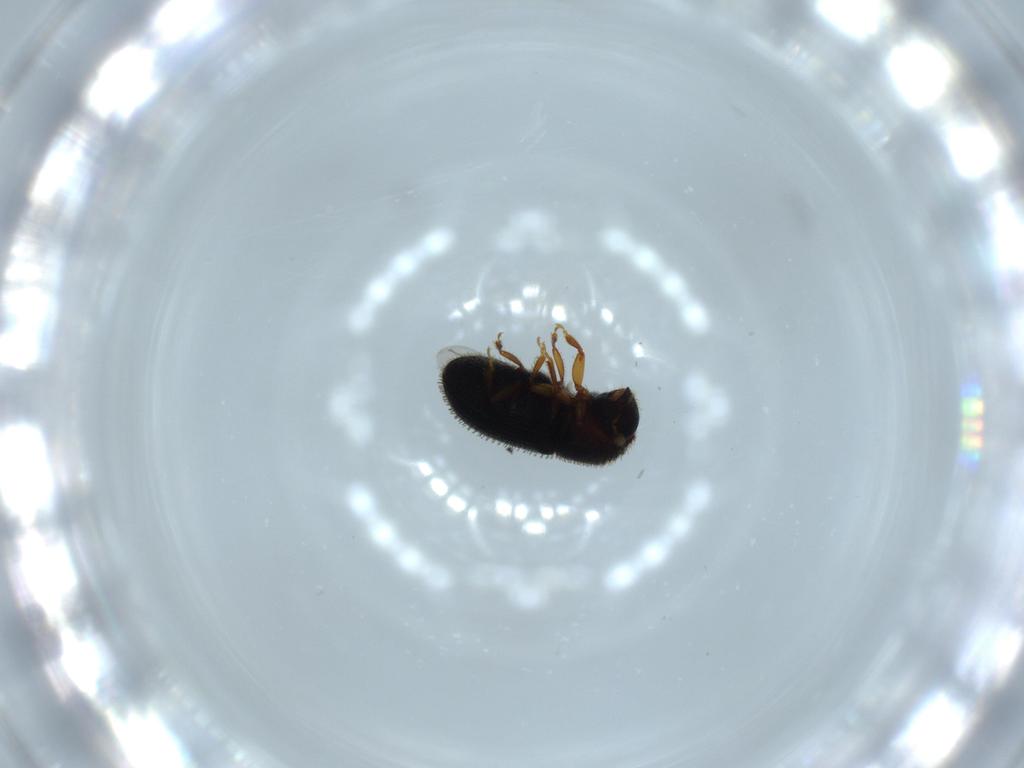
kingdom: Animalia
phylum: Arthropoda
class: Insecta
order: Coleoptera
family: Curculionidae
